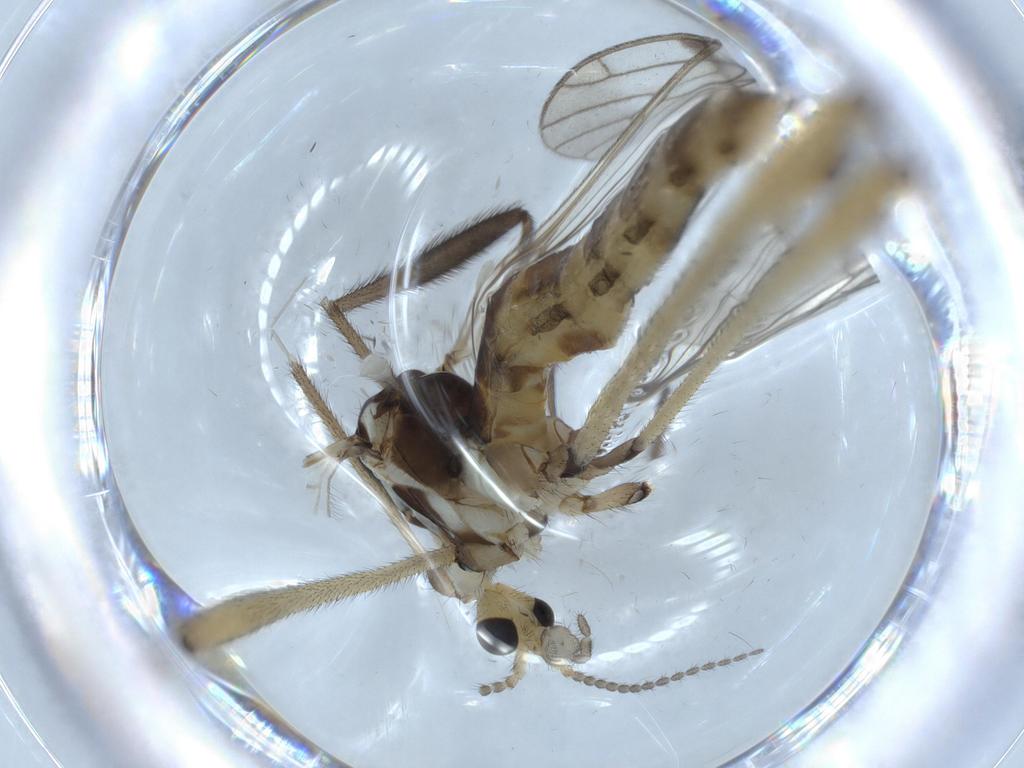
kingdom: Animalia
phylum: Arthropoda
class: Insecta
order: Diptera
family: Limoniidae
